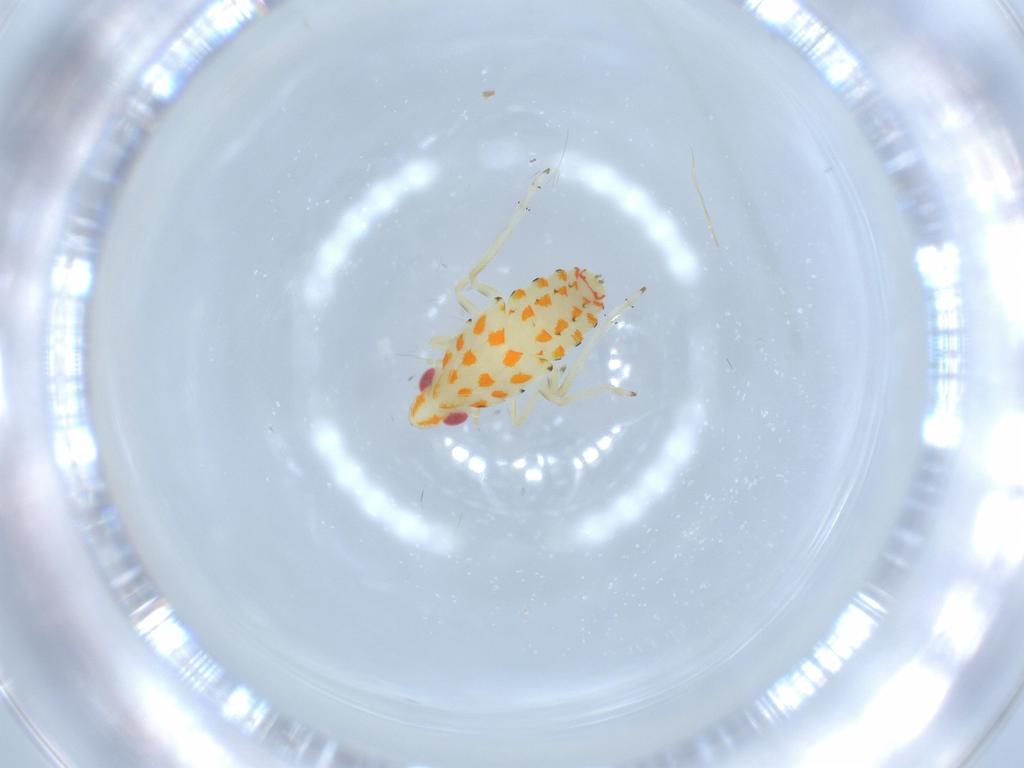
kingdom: Animalia
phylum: Arthropoda
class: Insecta
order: Hemiptera
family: Tropiduchidae
